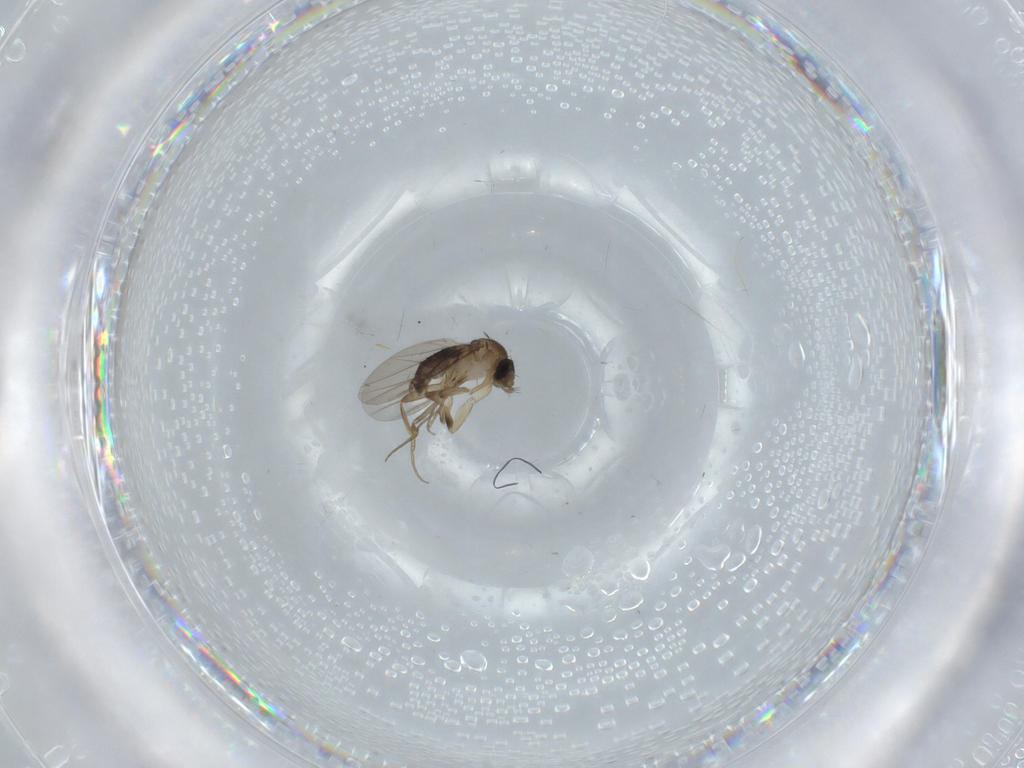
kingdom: Animalia
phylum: Arthropoda
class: Insecta
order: Diptera
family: Phoridae
